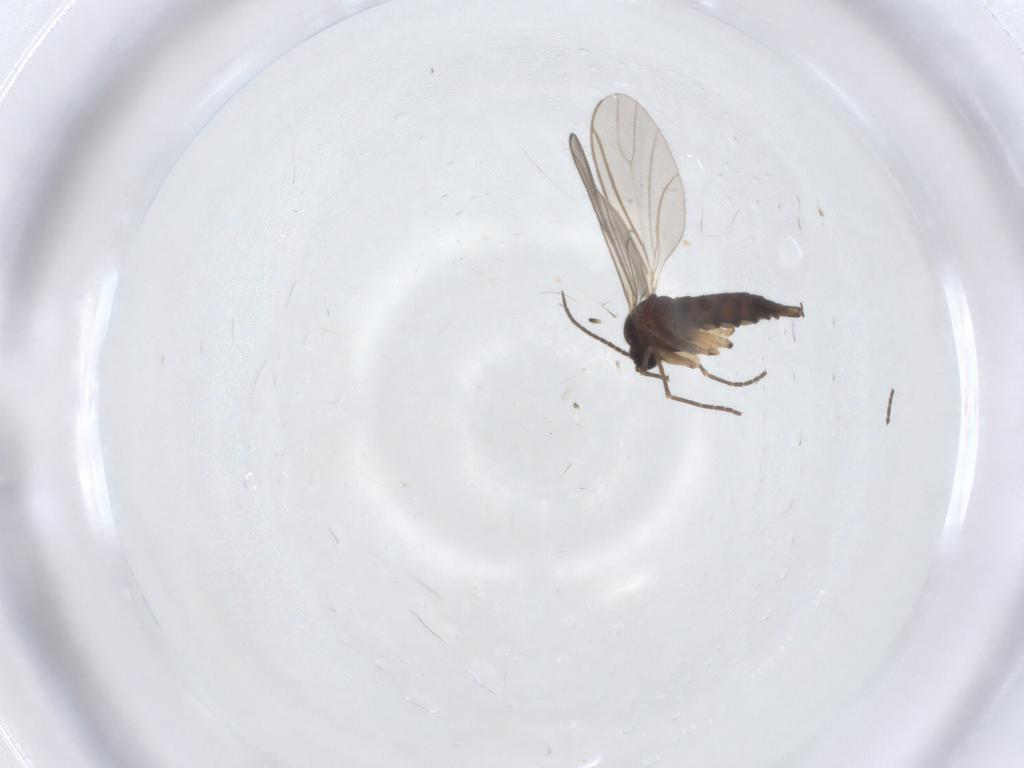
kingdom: Animalia
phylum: Arthropoda
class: Insecta
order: Diptera
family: Sciaridae
